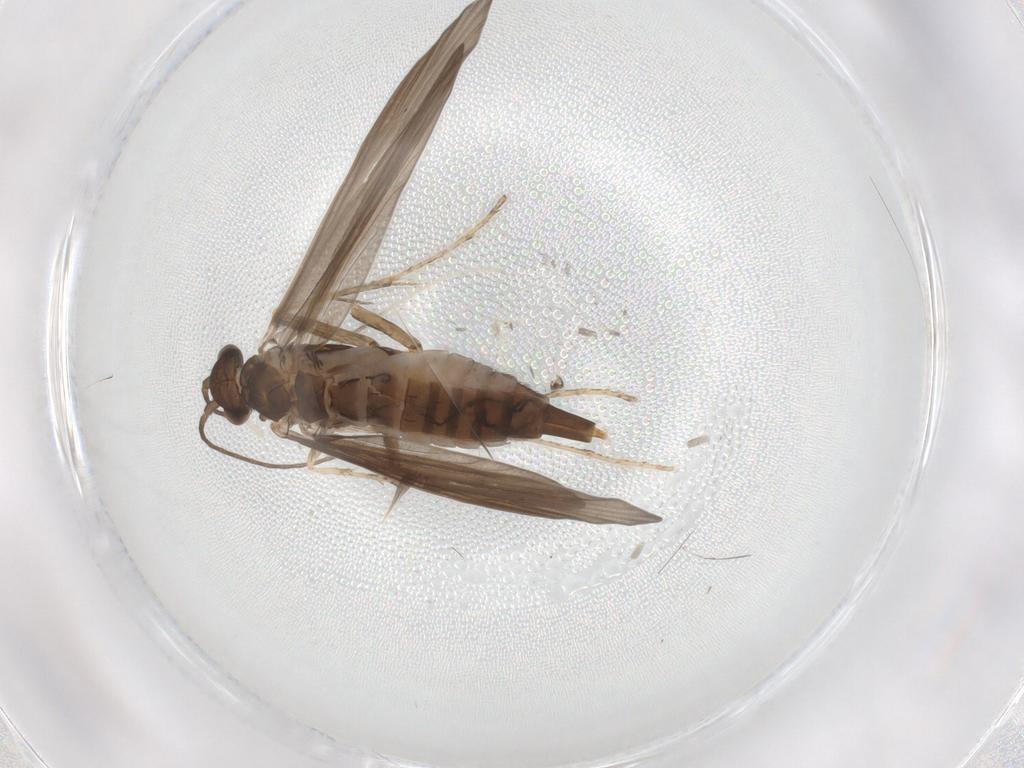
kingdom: Animalia
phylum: Arthropoda
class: Insecta
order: Trichoptera
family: Xiphocentronidae
